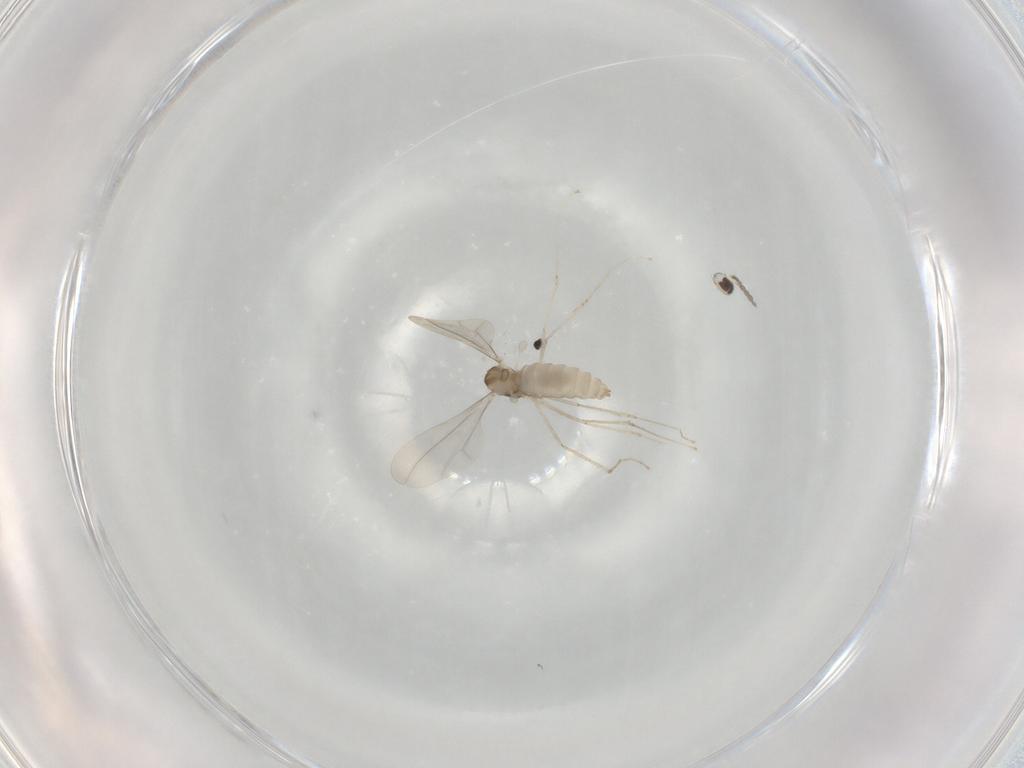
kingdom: Animalia
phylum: Arthropoda
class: Insecta
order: Diptera
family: Cecidomyiidae
